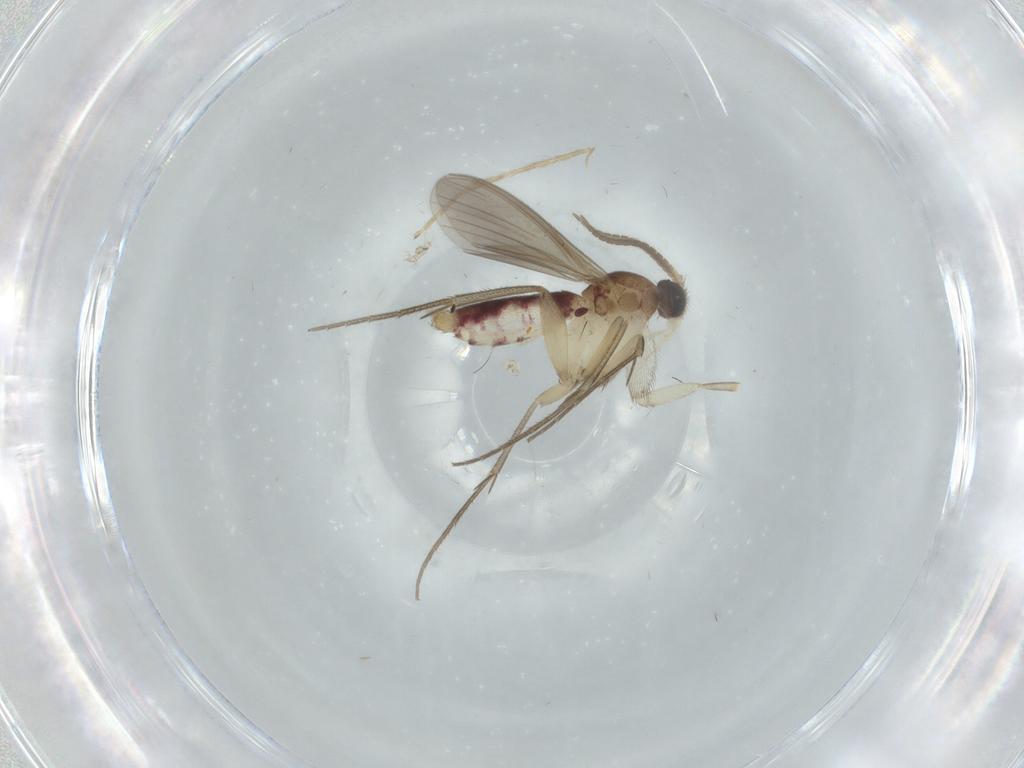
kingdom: Animalia
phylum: Arthropoda
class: Insecta
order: Diptera
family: Mycetophilidae
